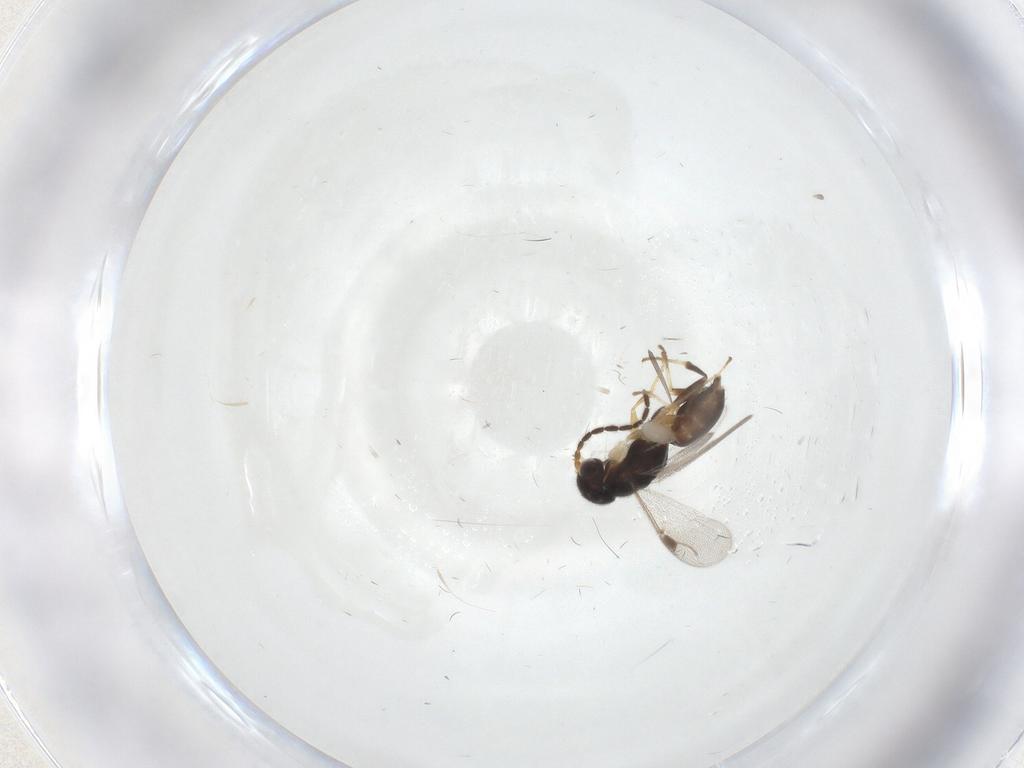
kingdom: Animalia
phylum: Arthropoda
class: Insecta
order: Hymenoptera
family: Dryinidae
